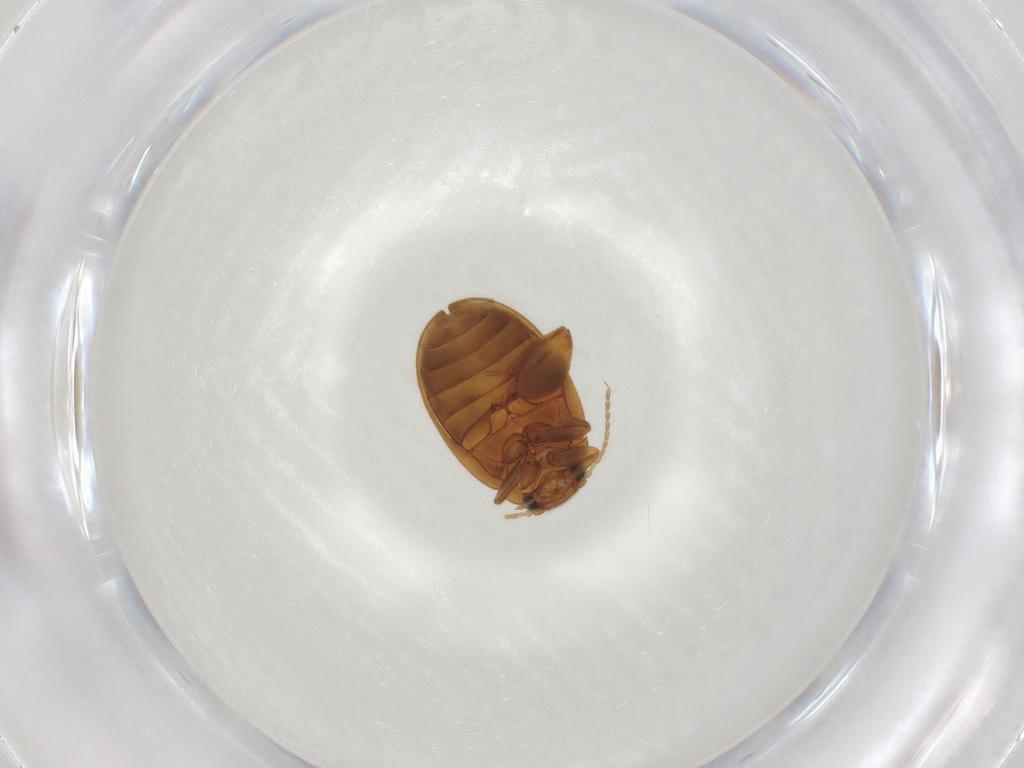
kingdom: Animalia
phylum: Arthropoda
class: Insecta
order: Coleoptera
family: Scirtidae
